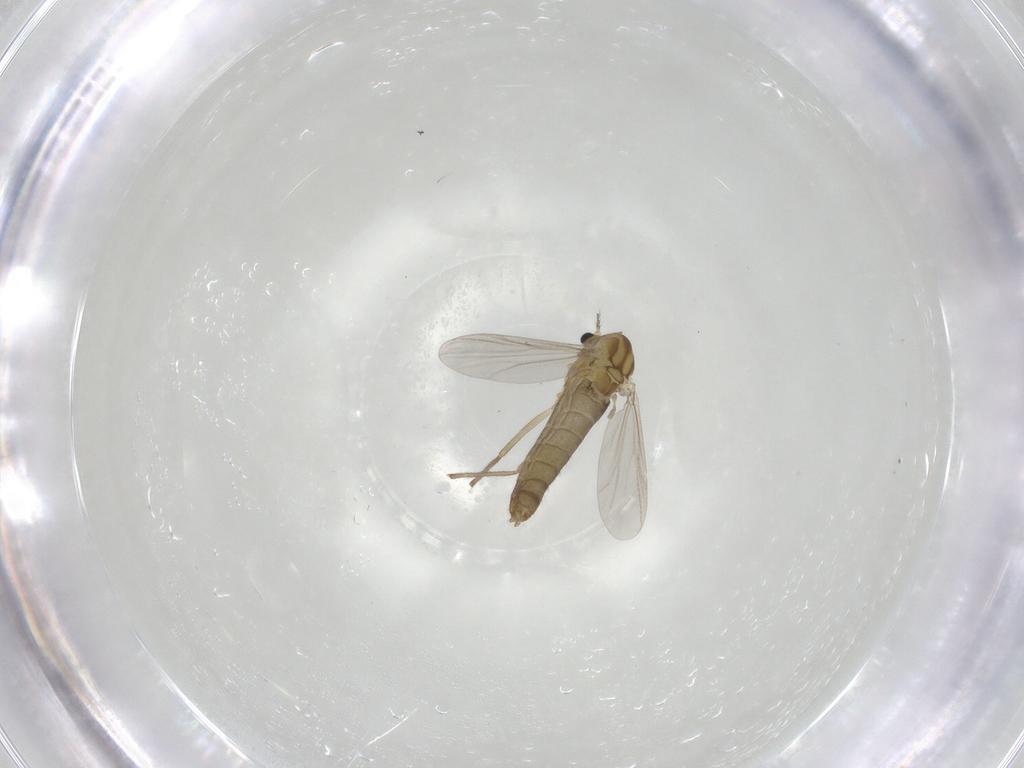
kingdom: Animalia
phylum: Arthropoda
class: Insecta
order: Diptera
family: Chironomidae
